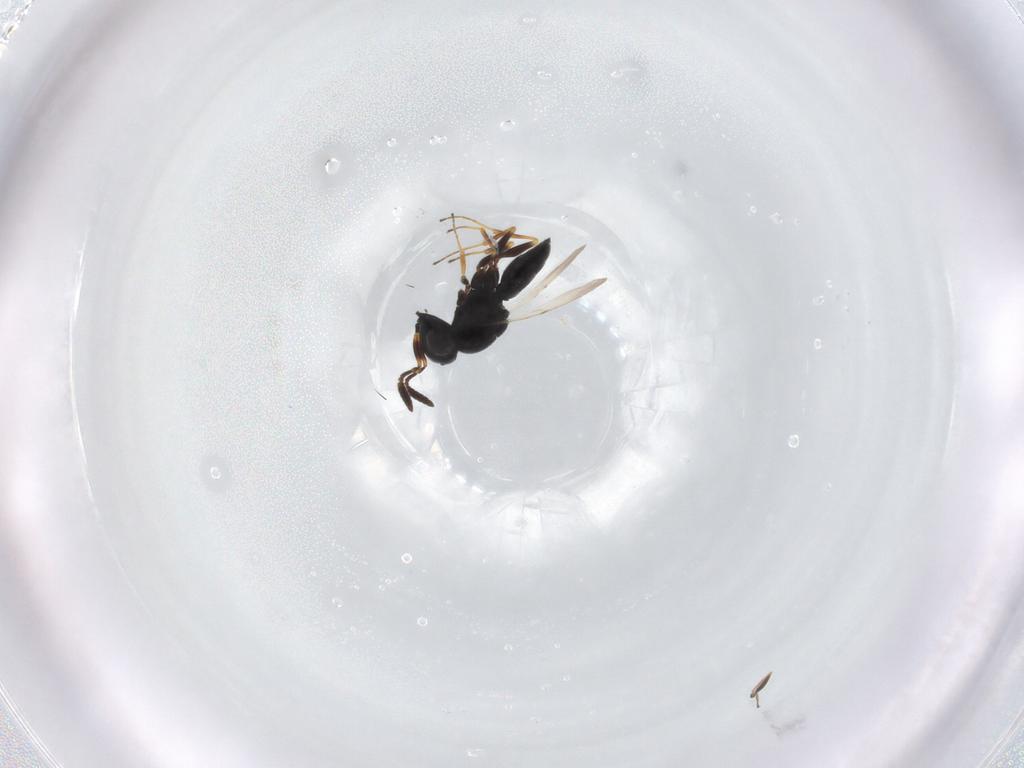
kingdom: Animalia
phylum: Arthropoda
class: Insecta
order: Hymenoptera
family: Scelionidae
